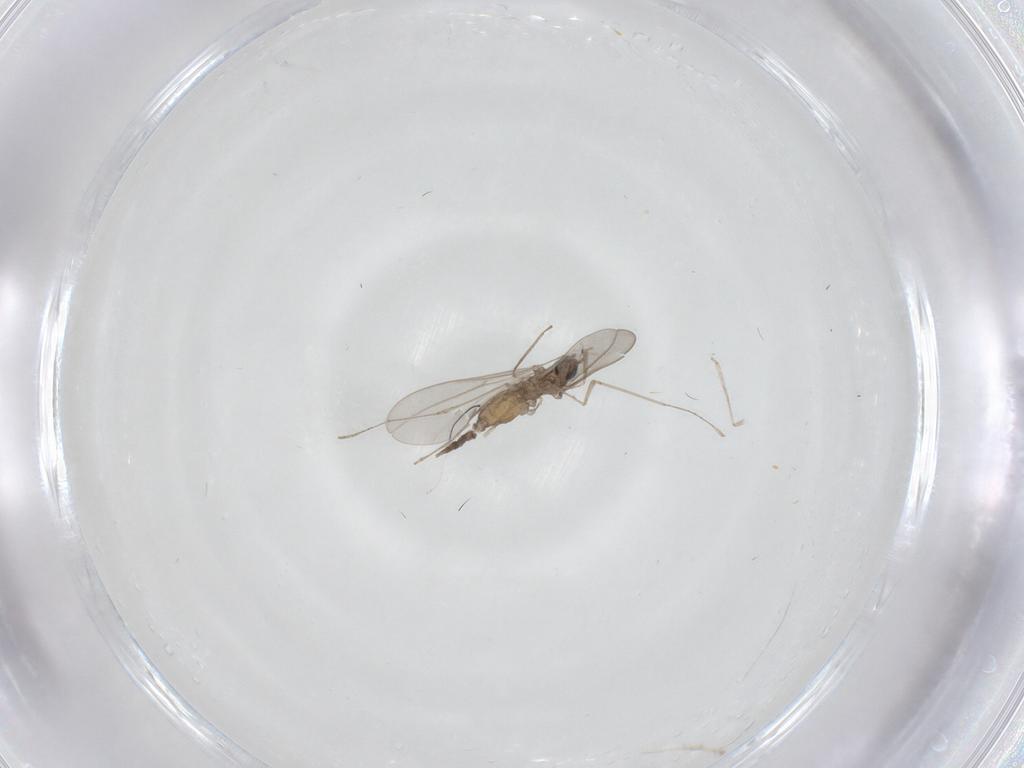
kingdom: Animalia
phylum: Arthropoda
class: Insecta
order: Diptera
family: Cecidomyiidae
